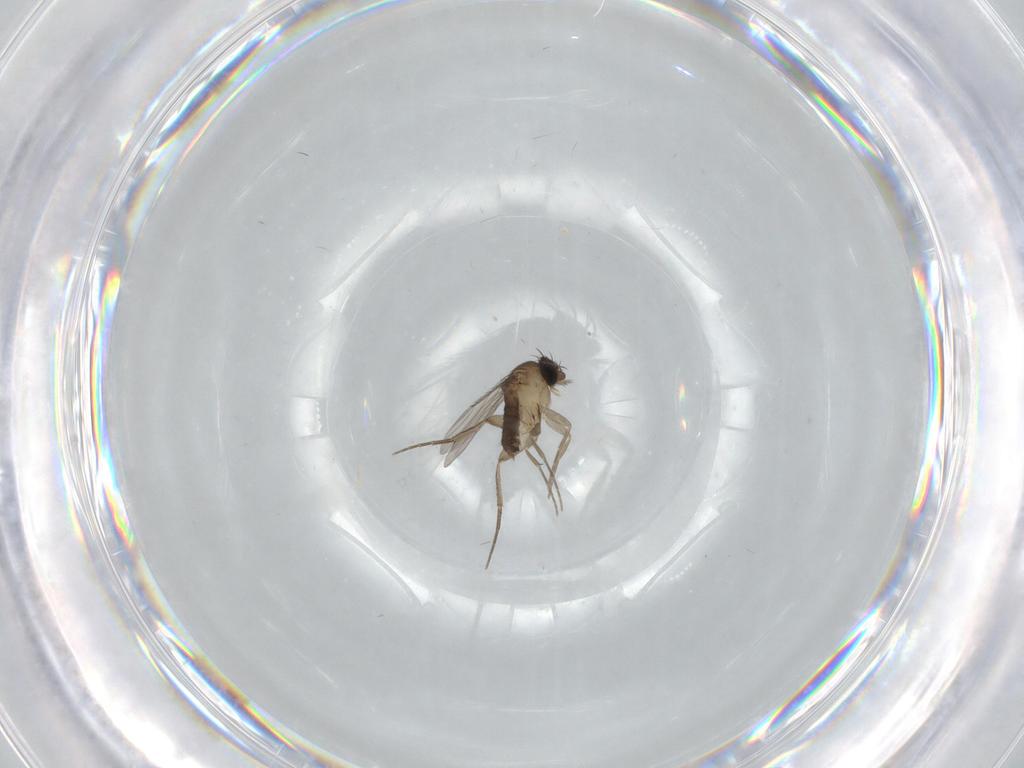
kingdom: Animalia
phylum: Arthropoda
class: Insecta
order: Diptera
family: Phoridae
